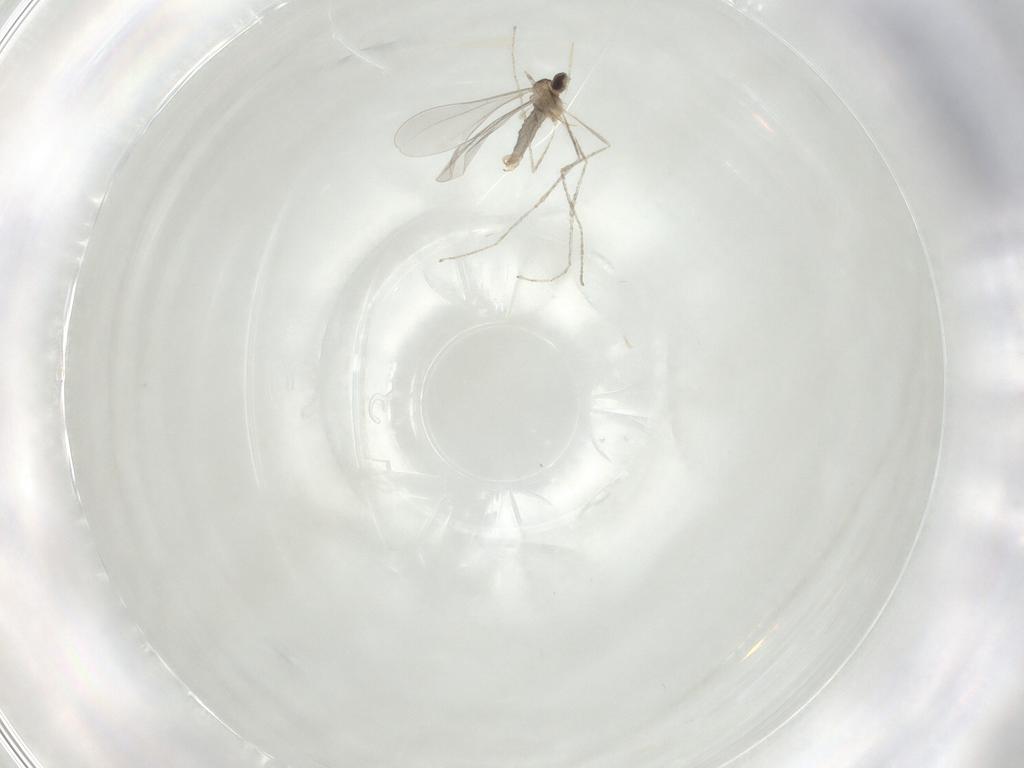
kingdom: Animalia
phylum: Arthropoda
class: Insecta
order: Diptera
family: Cecidomyiidae
